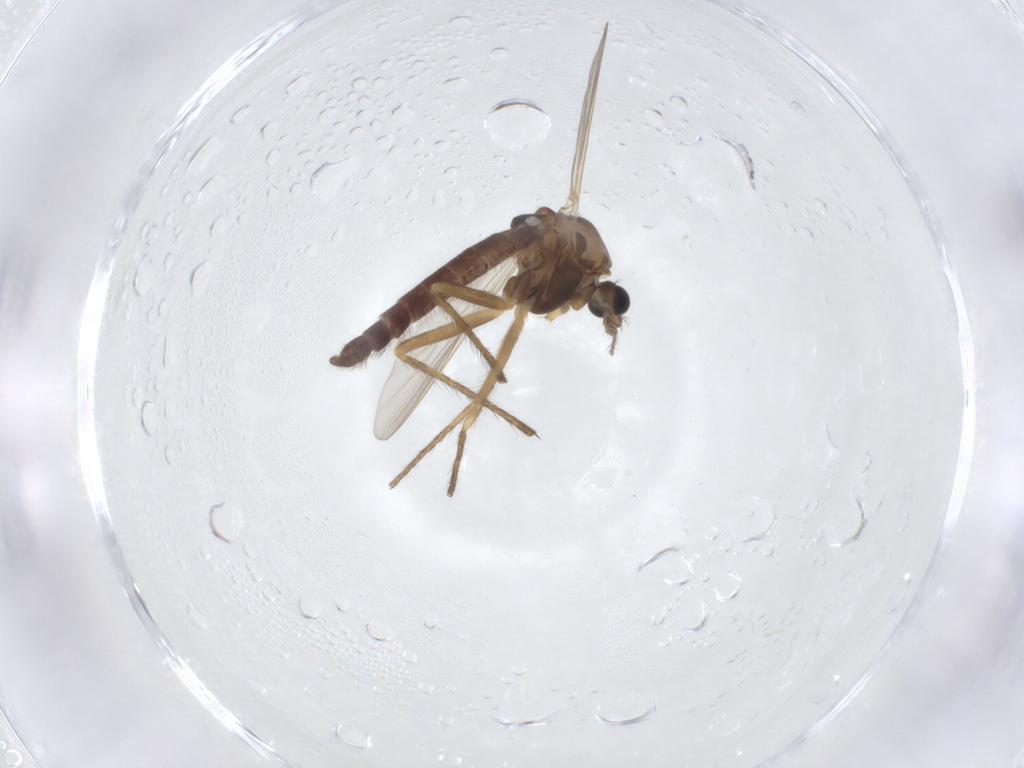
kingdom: Animalia
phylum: Arthropoda
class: Insecta
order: Diptera
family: Chironomidae
